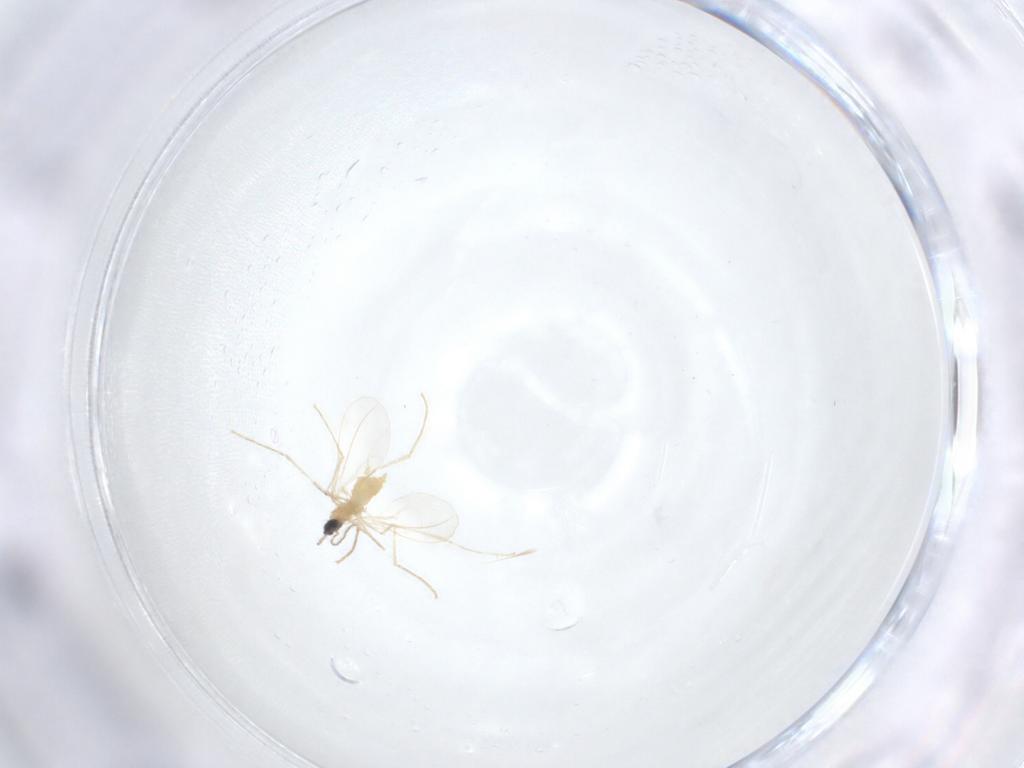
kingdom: Animalia
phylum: Arthropoda
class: Insecta
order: Diptera
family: Cecidomyiidae
